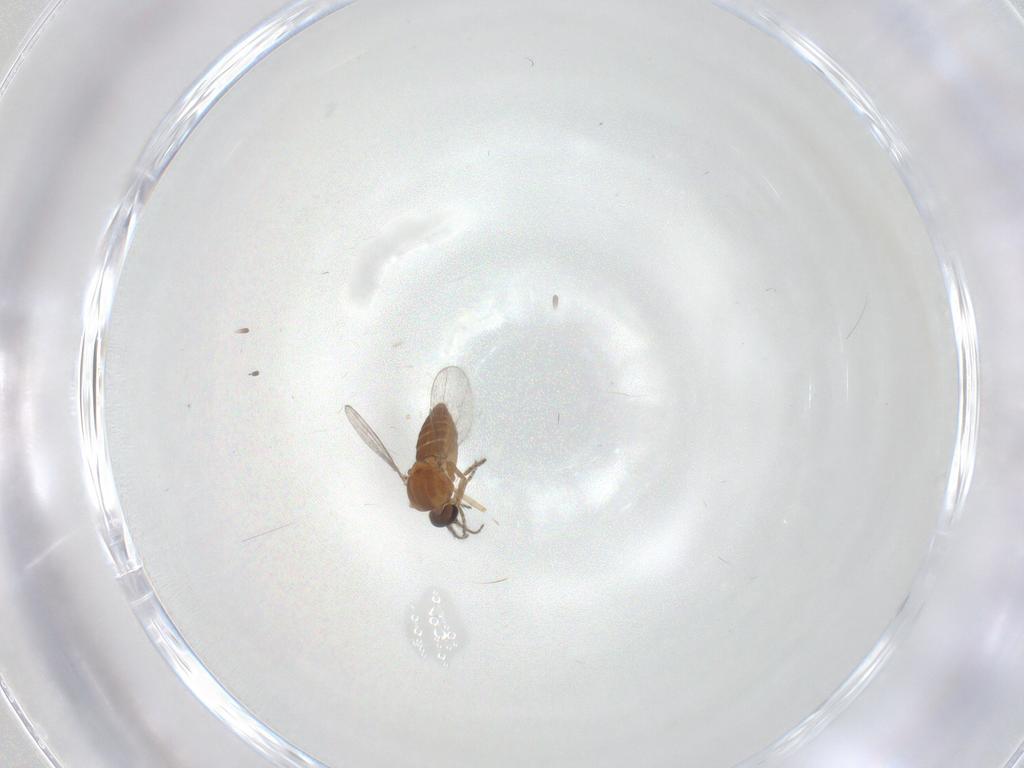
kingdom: Animalia
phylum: Arthropoda
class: Insecta
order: Diptera
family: Ceratopogonidae
